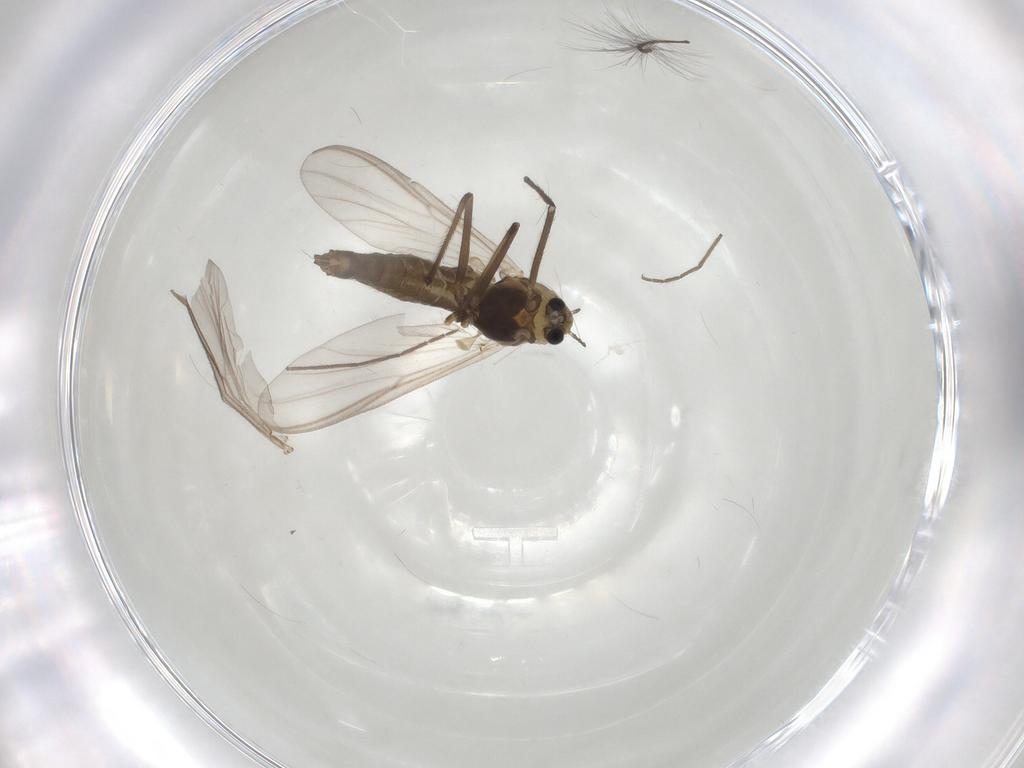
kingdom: Animalia
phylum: Arthropoda
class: Insecta
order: Diptera
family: Chironomidae
